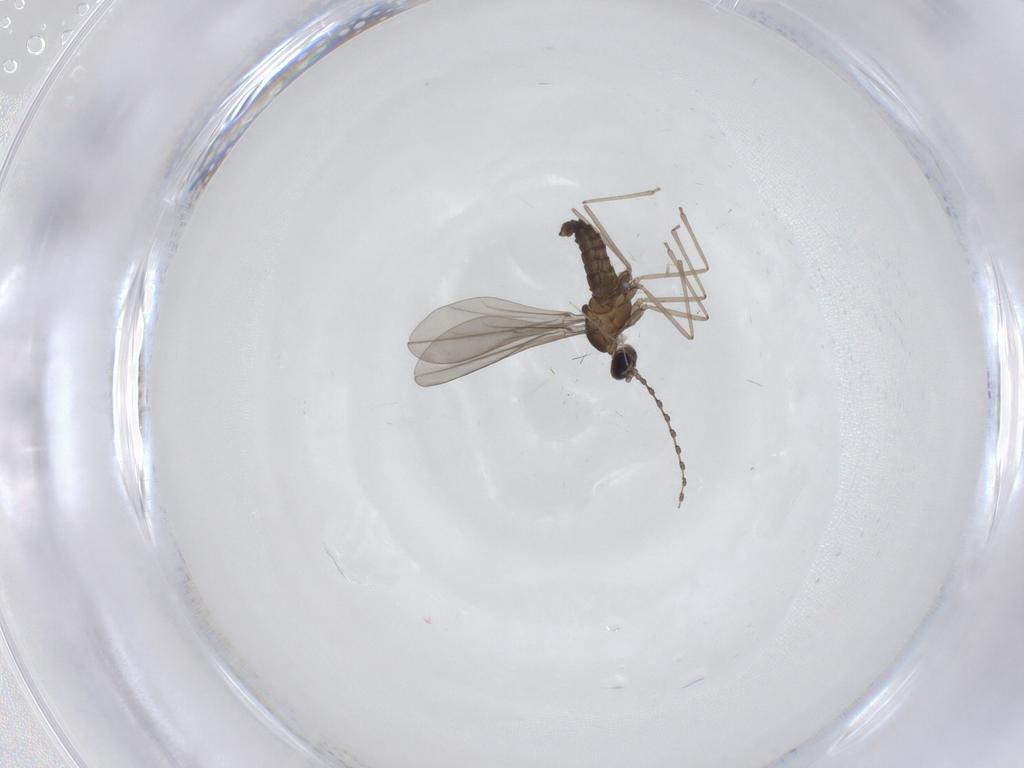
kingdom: Animalia
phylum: Arthropoda
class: Insecta
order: Diptera
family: Cecidomyiidae
